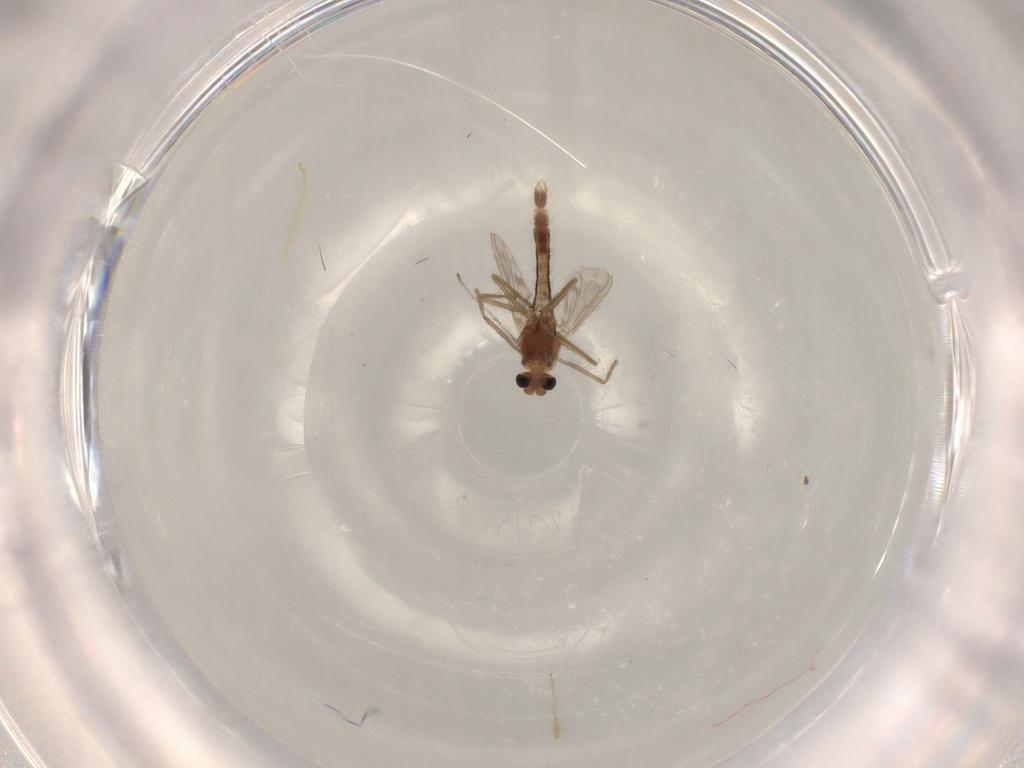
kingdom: Animalia
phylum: Arthropoda
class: Insecta
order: Diptera
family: Chironomidae
